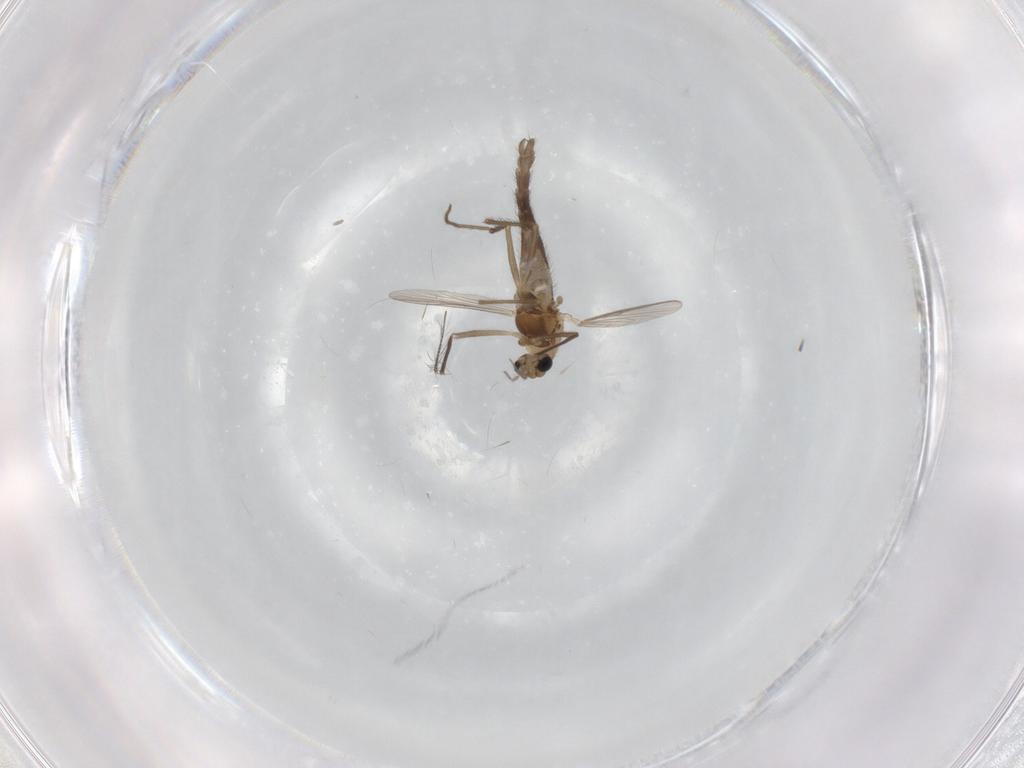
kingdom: Animalia
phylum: Arthropoda
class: Insecta
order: Diptera
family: Chironomidae
